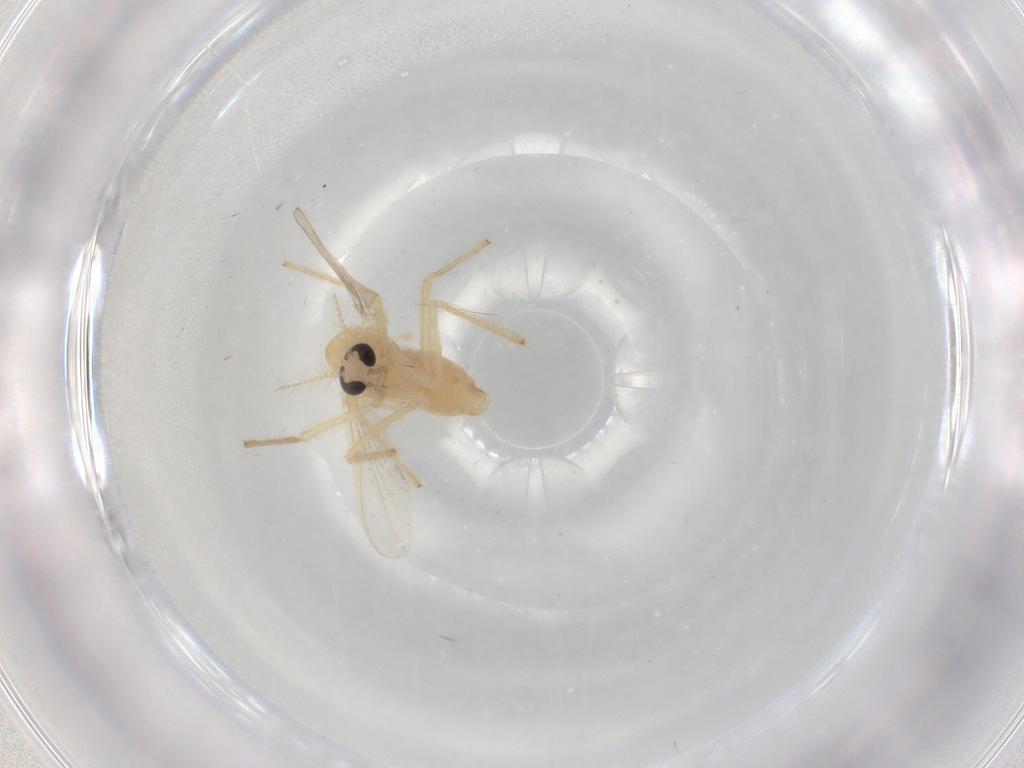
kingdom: Animalia
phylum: Arthropoda
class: Insecta
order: Diptera
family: Chironomidae
